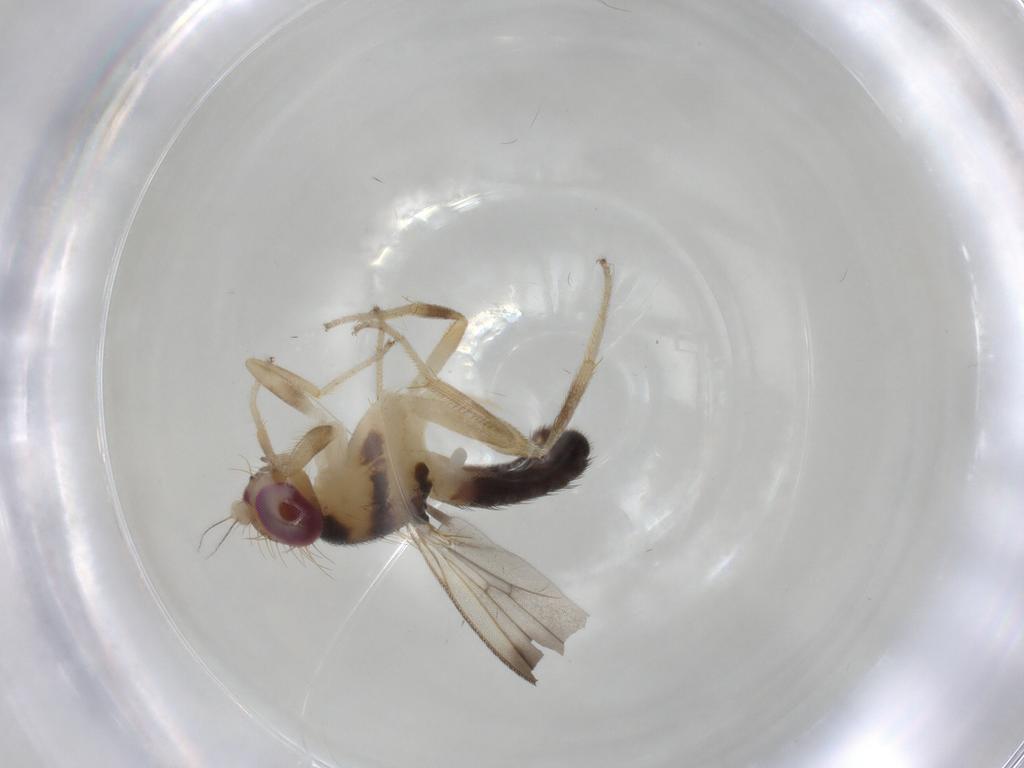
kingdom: Animalia
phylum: Arthropoda
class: Insecta
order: Diptera
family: Clusiidae
